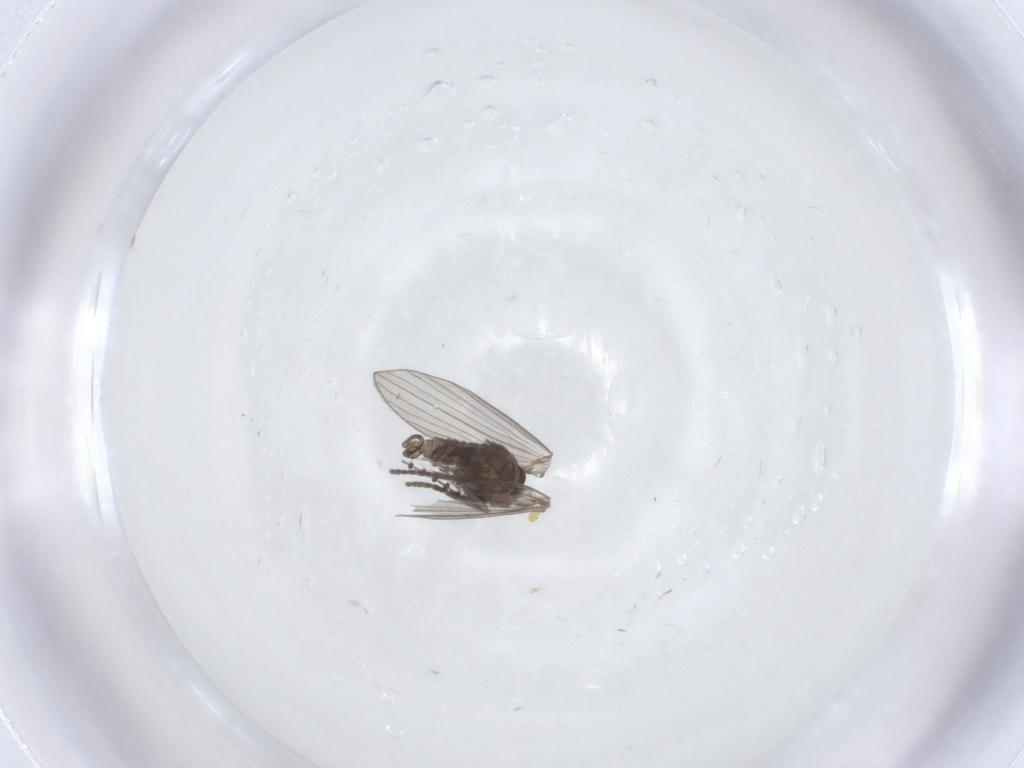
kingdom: Animalia
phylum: Arthropoda
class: Insecta
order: Diptera
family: Psychodidae
